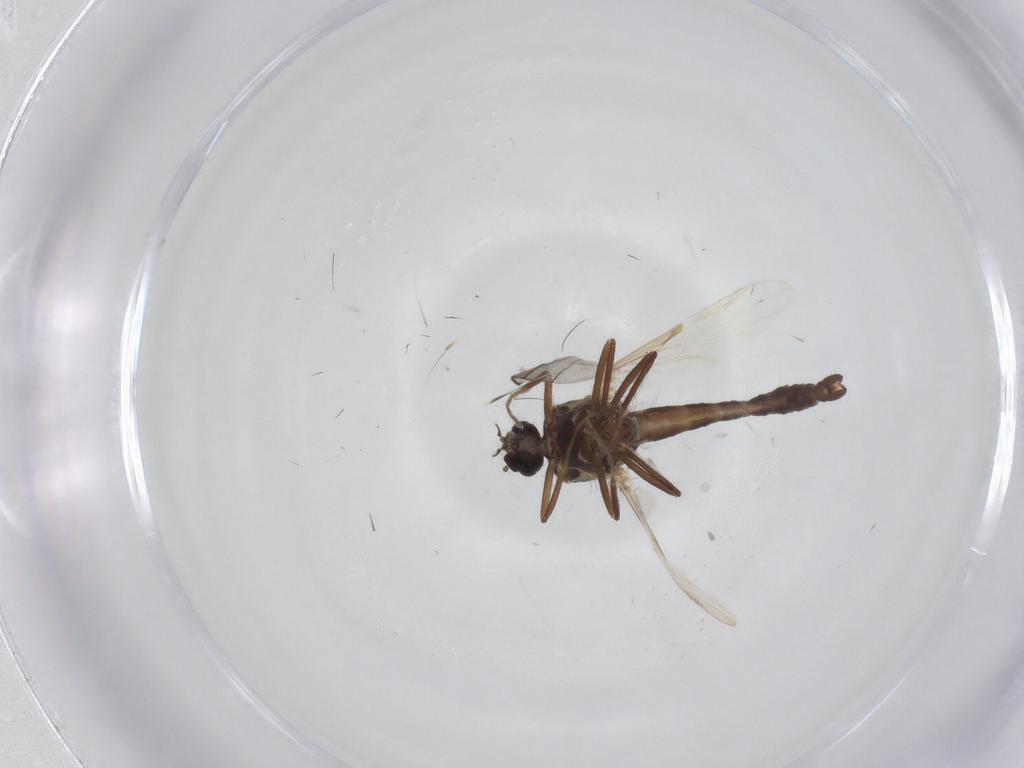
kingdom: Animalia
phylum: Arthropoda
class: Insecta
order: Diptera
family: Ceratopogonidae
